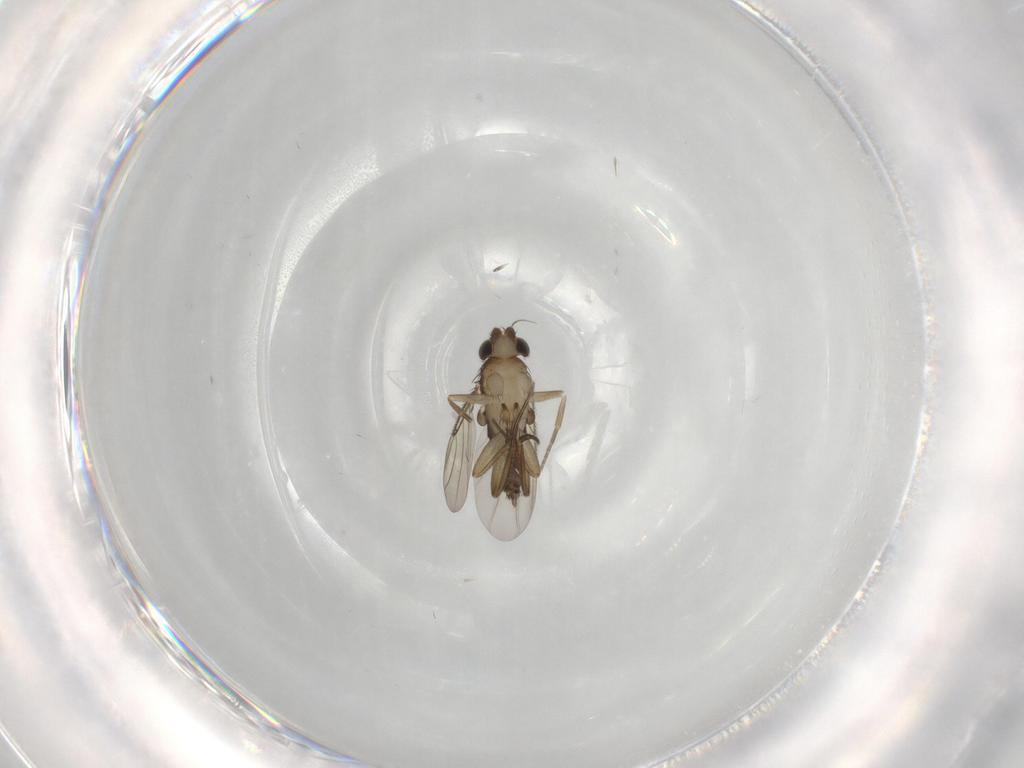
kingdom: Animalia
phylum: Arthropoda
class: Insecta
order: Diptera
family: Phoridae
